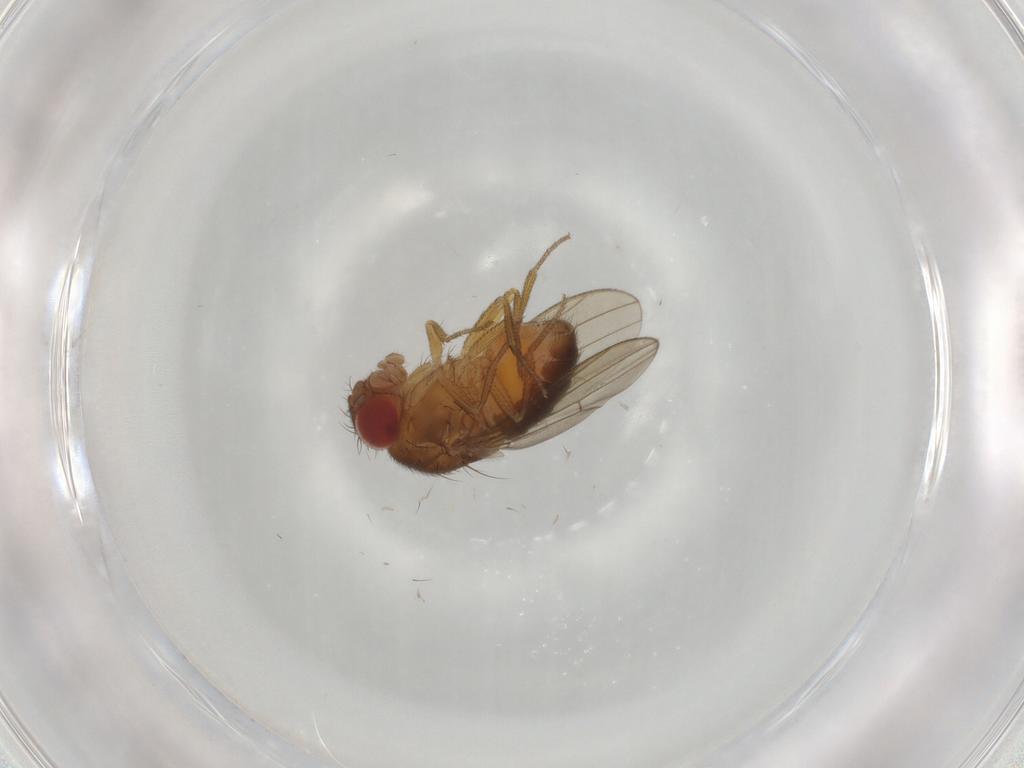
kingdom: Animalia
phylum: Arthropoda
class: Insecta
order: Diptera
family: Drosophilidae
